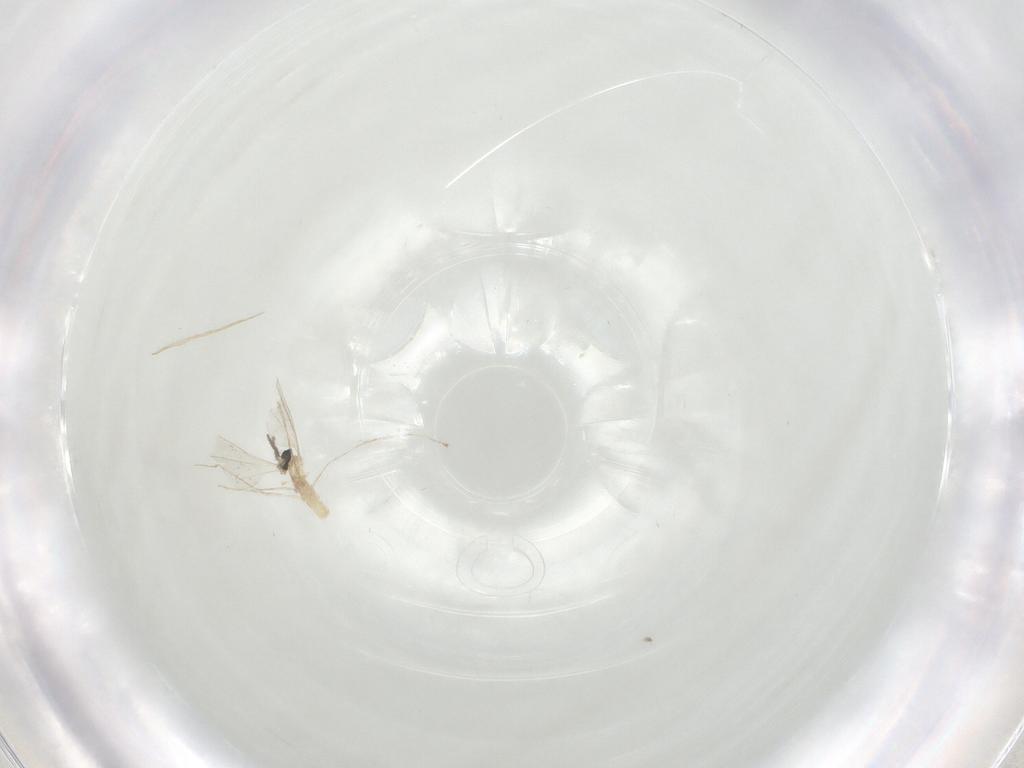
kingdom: Animalia
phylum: Arthropoda
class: Insecta
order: Diptera
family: Cecidomyiidae
